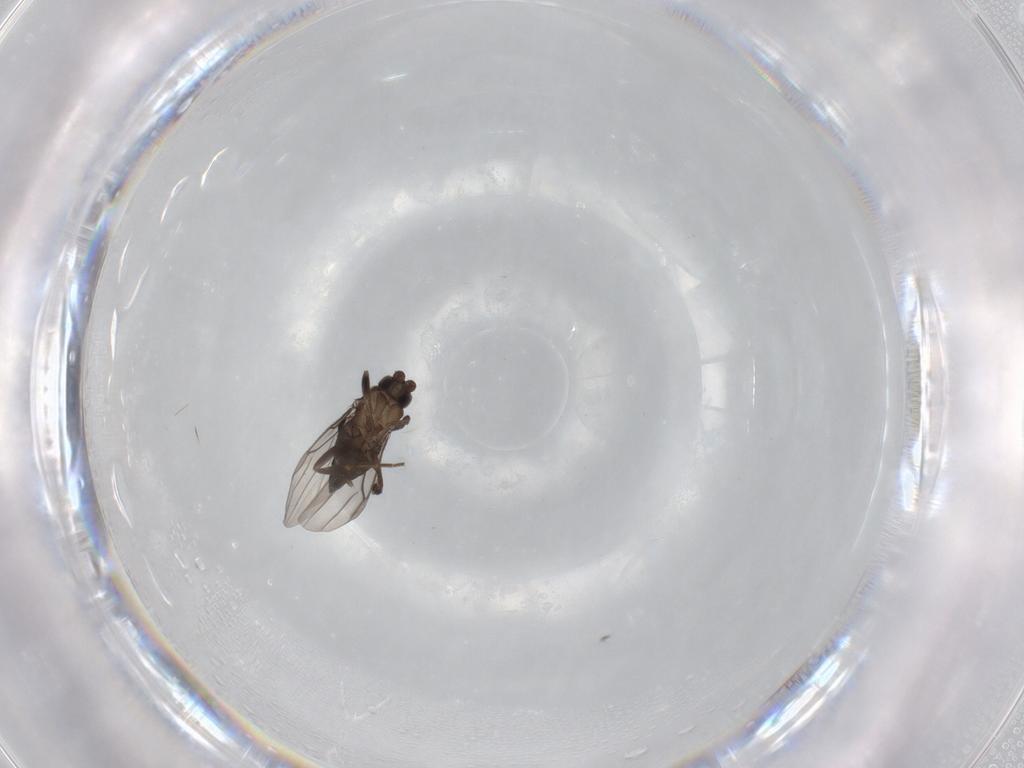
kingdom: Animalia
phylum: Arthropoda
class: Insecta
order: Diptera
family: Phoridae
